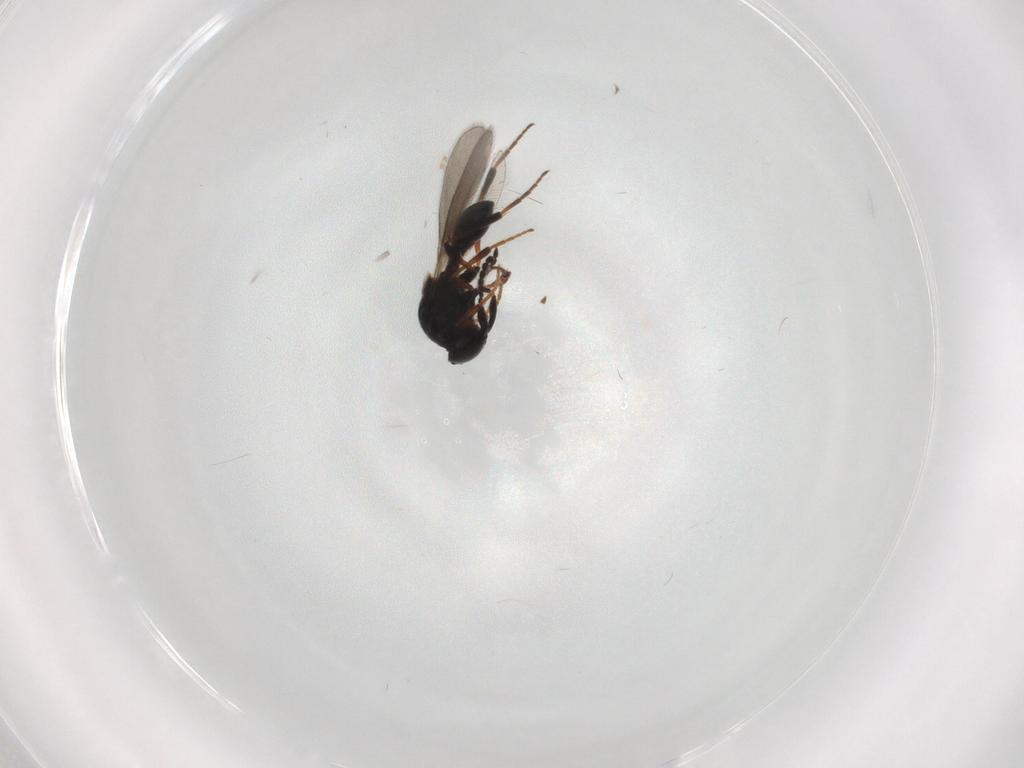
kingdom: Animalia
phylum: Arthropoda
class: Insecta
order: Hymenoptera
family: Platygastridae
